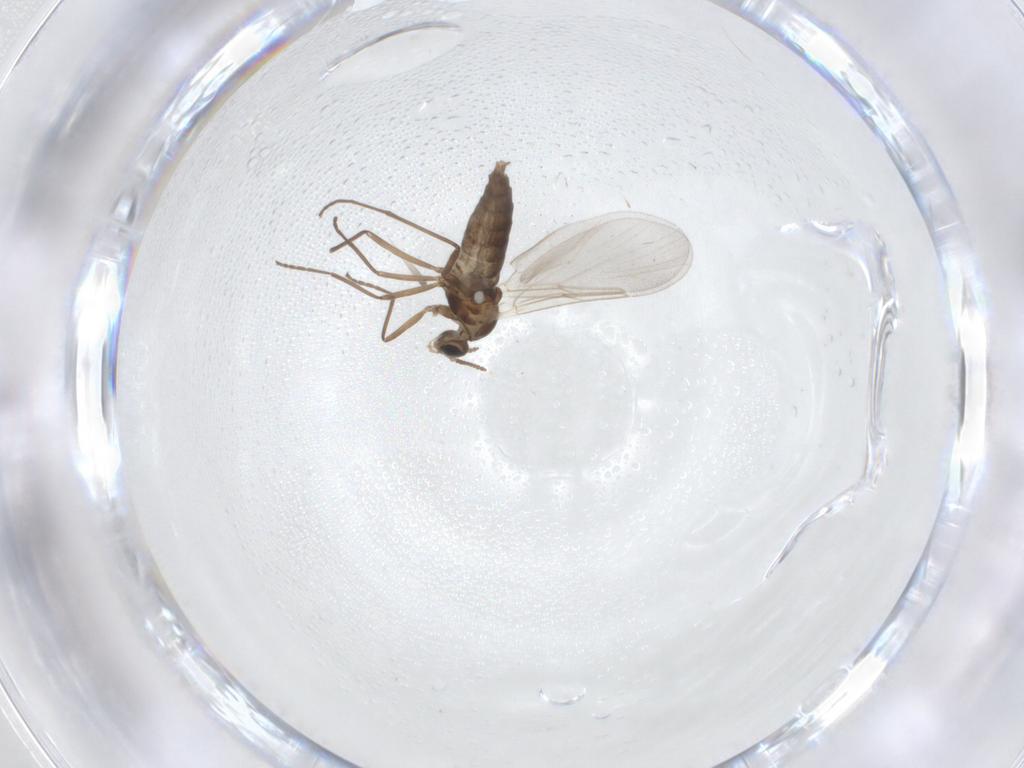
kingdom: Animalia
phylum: Arthropoda
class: Insecta
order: Diptera
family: Cecidomyiidae
